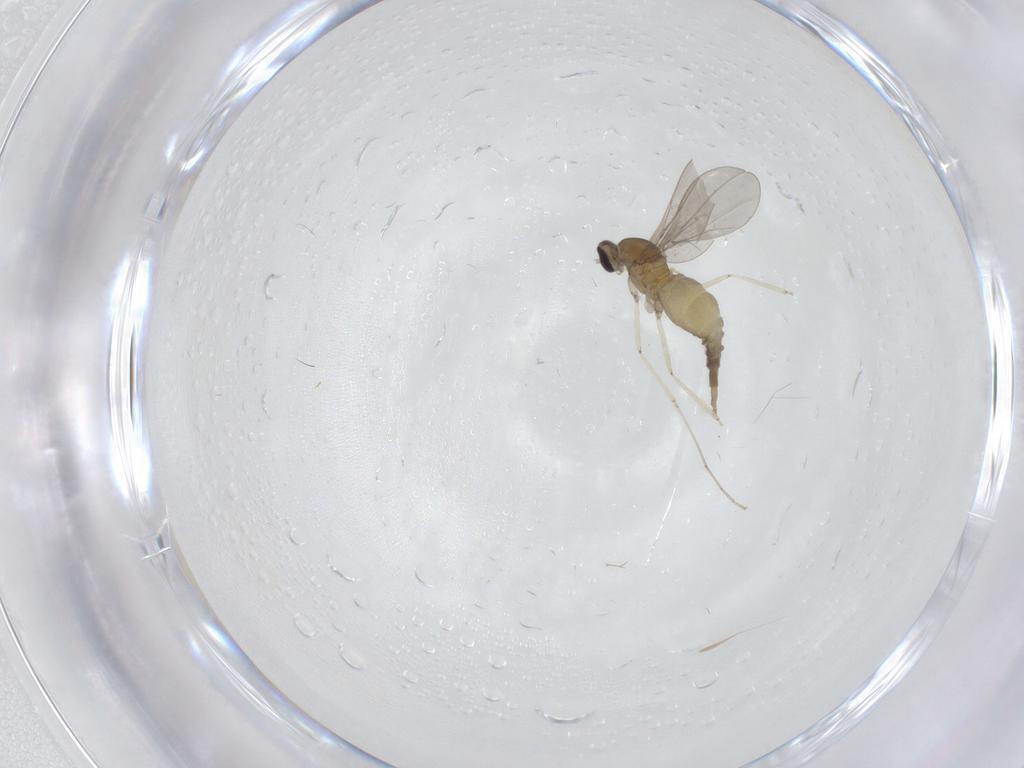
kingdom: Animalia
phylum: Arthropoda
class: Insecta
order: Diptera
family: Cecidomyiidae
